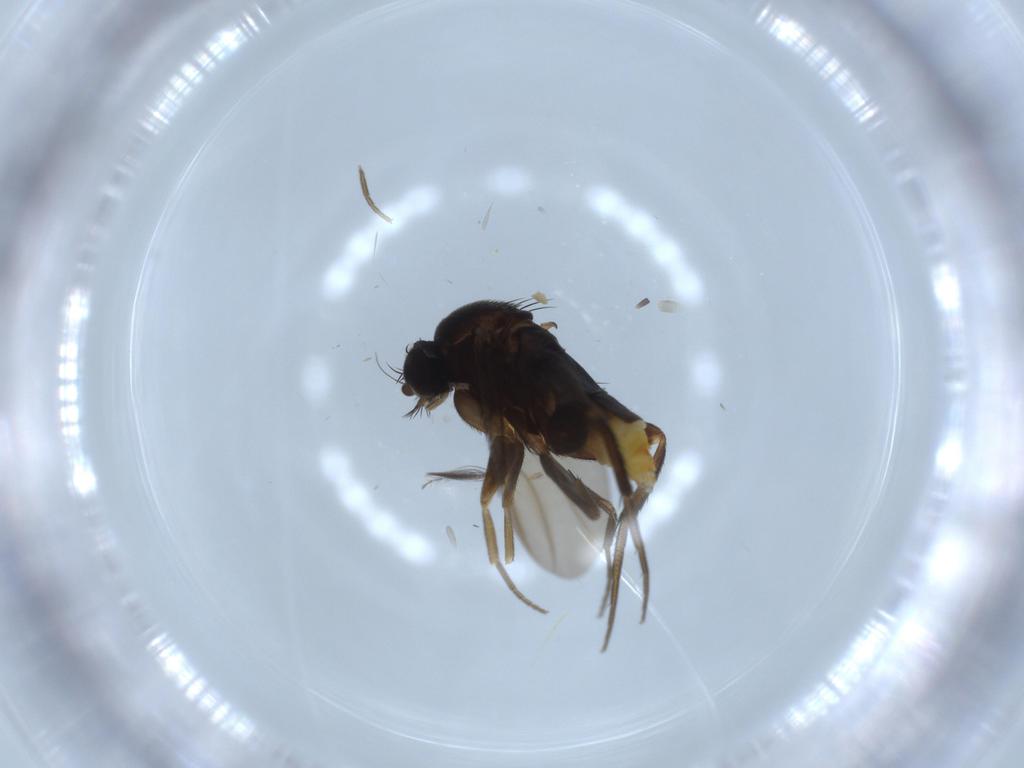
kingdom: Animalia
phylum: Arthropoda
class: Insecta
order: Diptera
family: Phoridae
